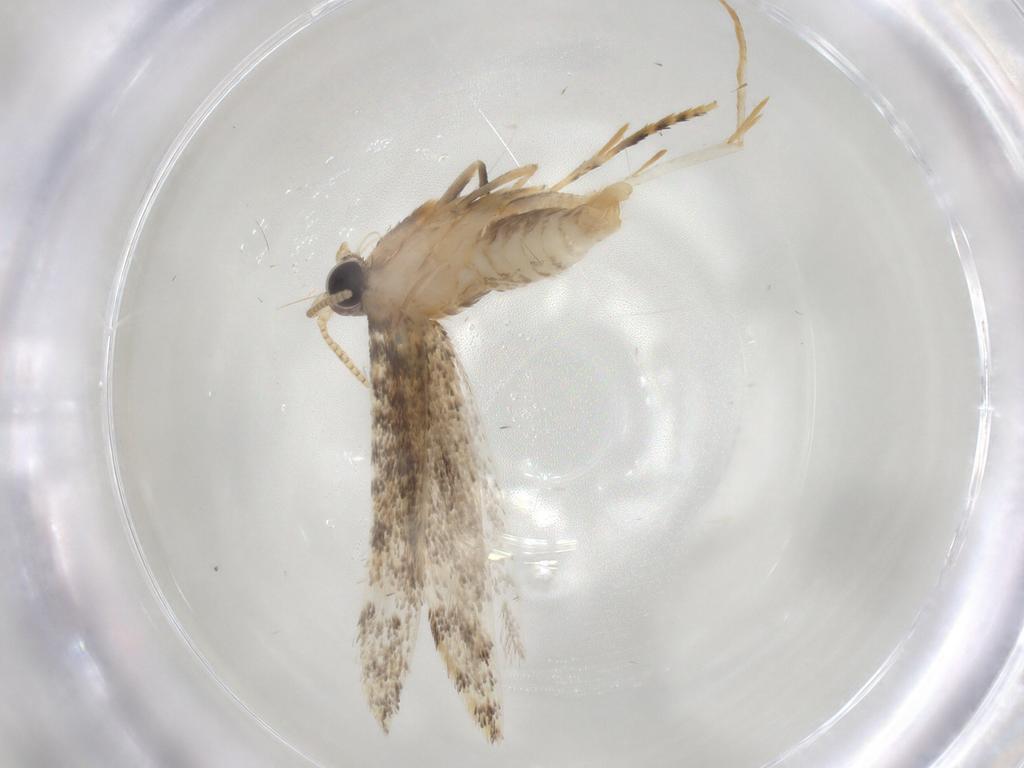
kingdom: Animalia
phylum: Arthropoda
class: Insecta
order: Lepidoptera
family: Tineidae
